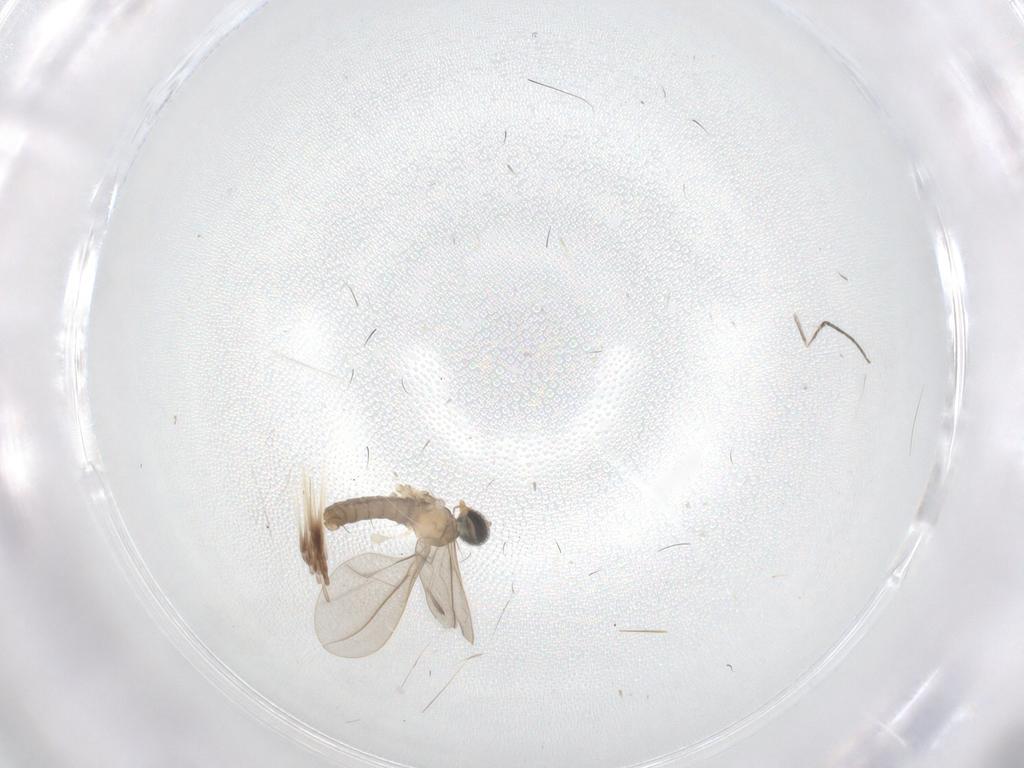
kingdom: Animalia
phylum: Arthropoda
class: Insecta
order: Diptera
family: Cecidomyiidae
